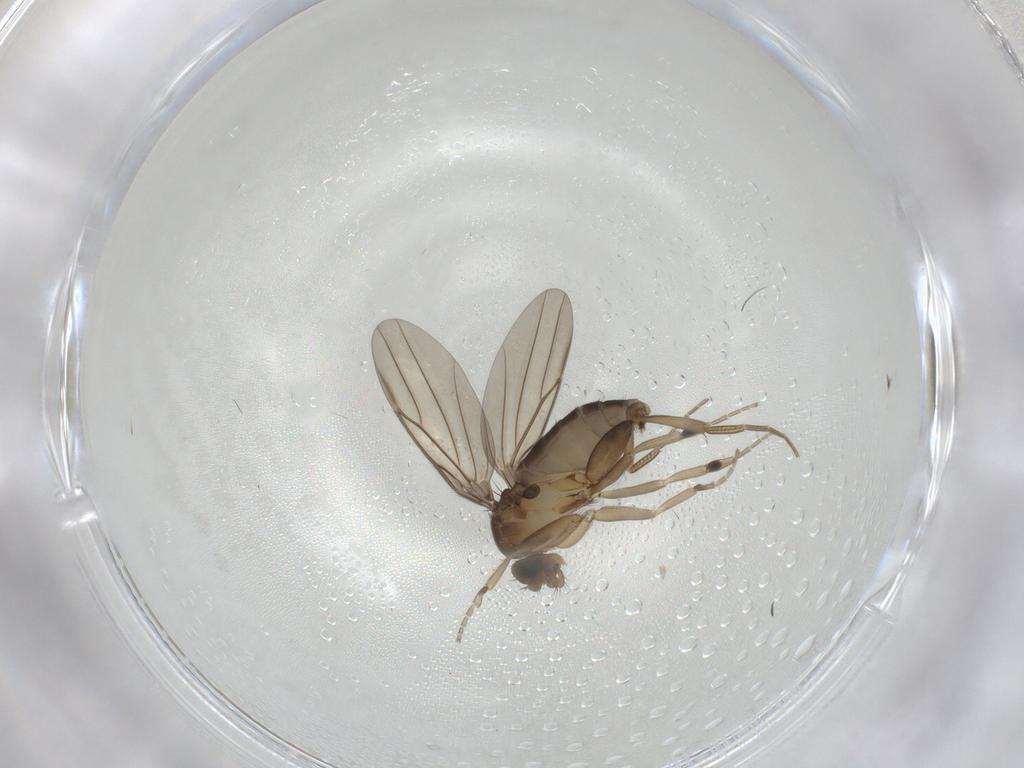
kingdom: Animalia
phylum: Arthropoda
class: Insecta
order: Diptera
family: Phoridae
